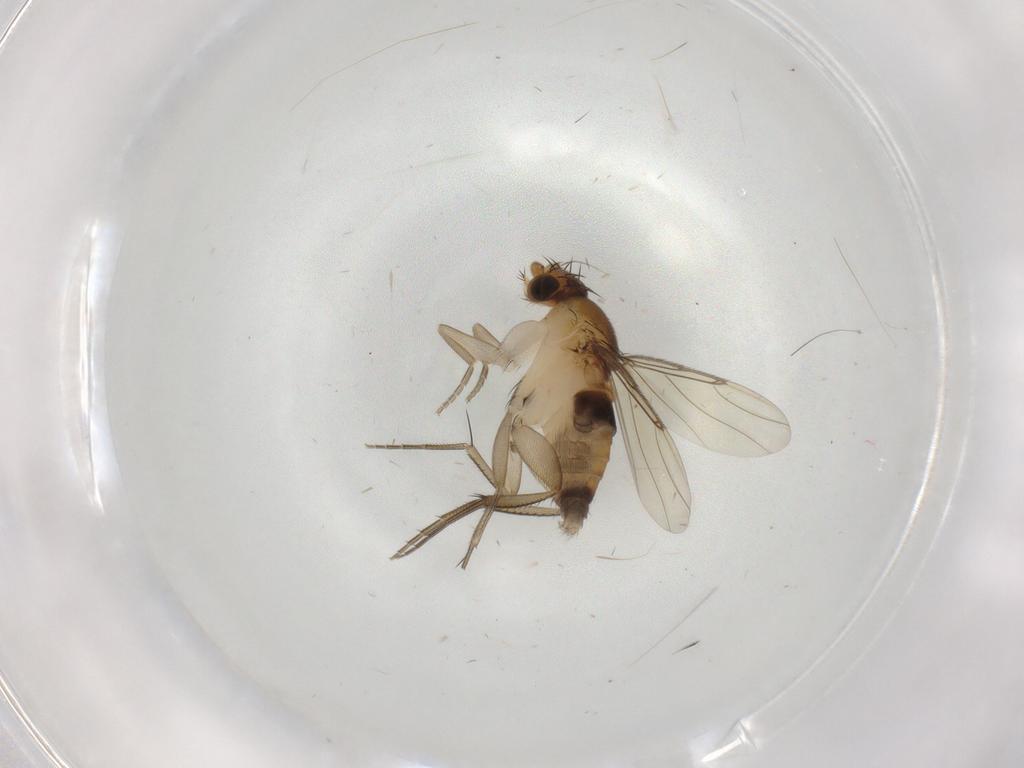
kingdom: Animalia
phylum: Arthropoda
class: Insecta
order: Diptera
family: Phoridae
